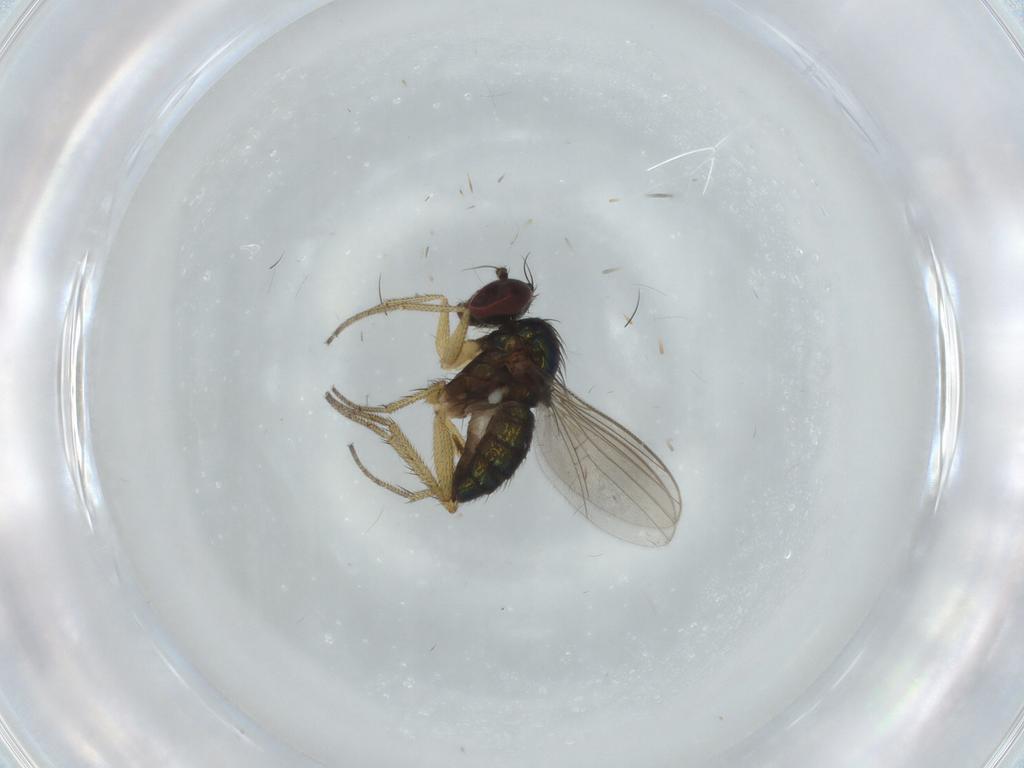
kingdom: Animalia
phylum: Arthropoda
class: Insecta
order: Diptera
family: Dolichopodidae
